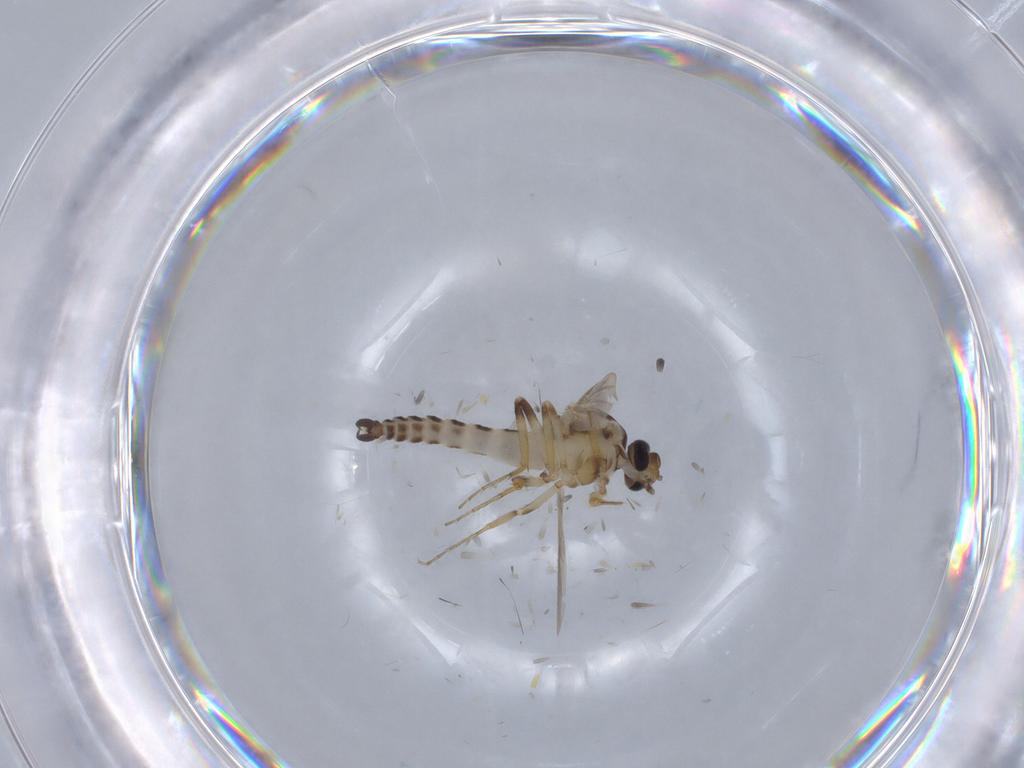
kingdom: Animalia
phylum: Arthropoda
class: Insecta
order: Diptera
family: Ceratopogonidae
